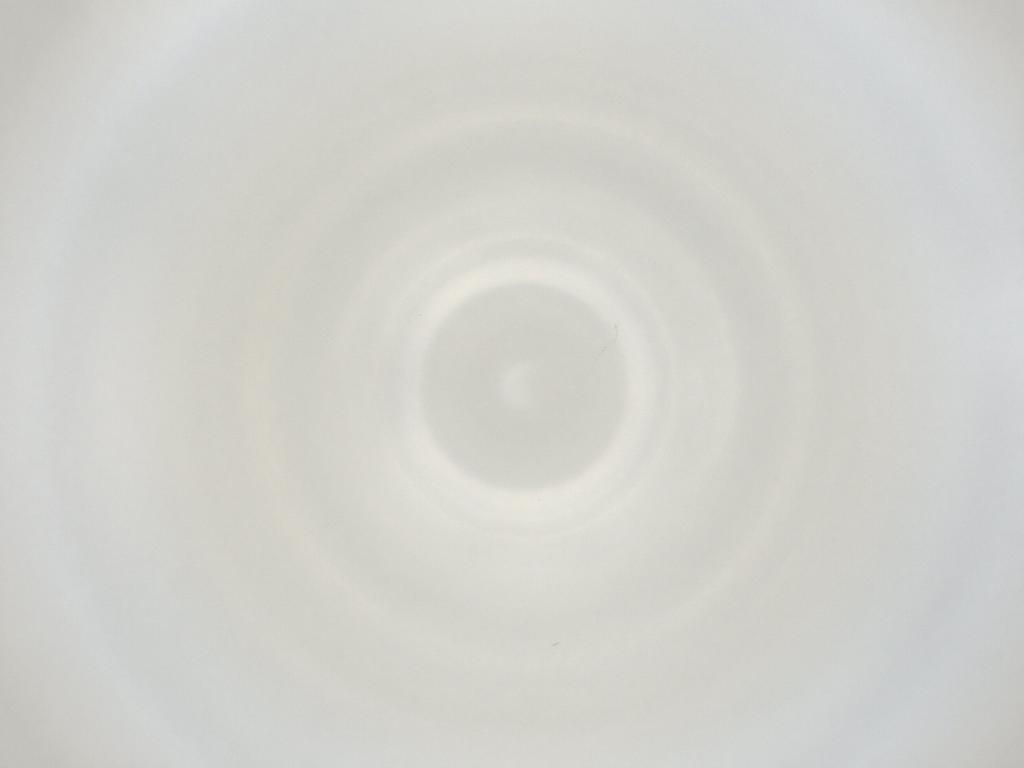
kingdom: Animalia
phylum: Arthropoda
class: Insecta
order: Diptera
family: Cecidomyiidae
